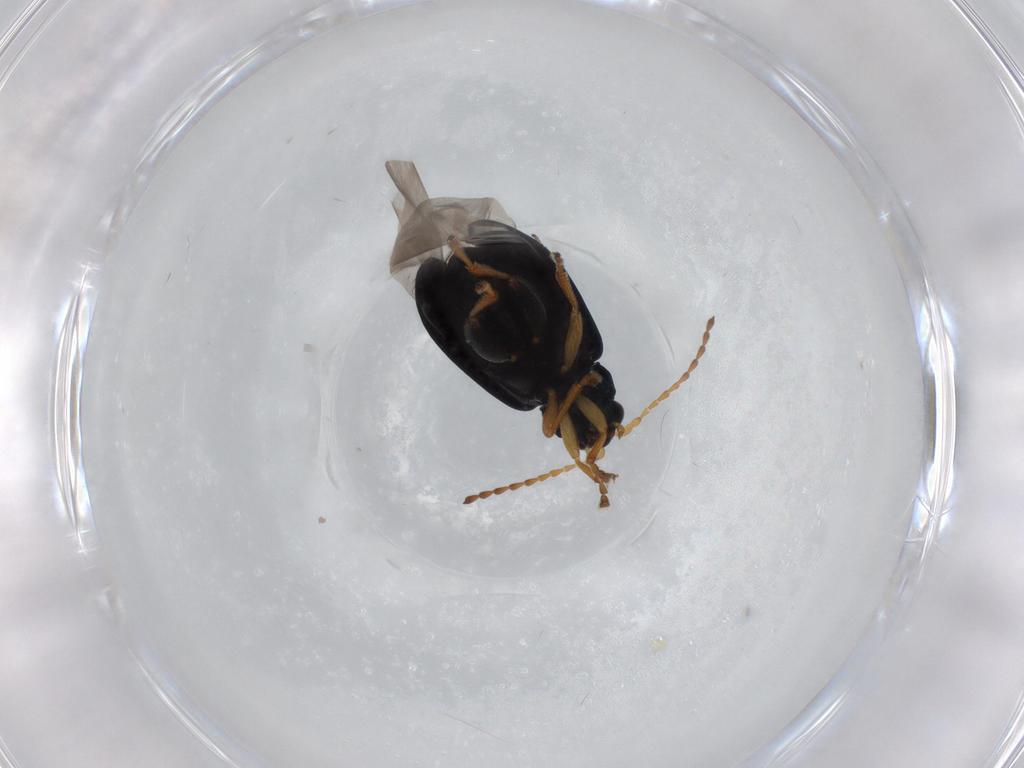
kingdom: Animalia
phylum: Arthropoda
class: Insecta
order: Coleoptera
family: Chrysomelidae
